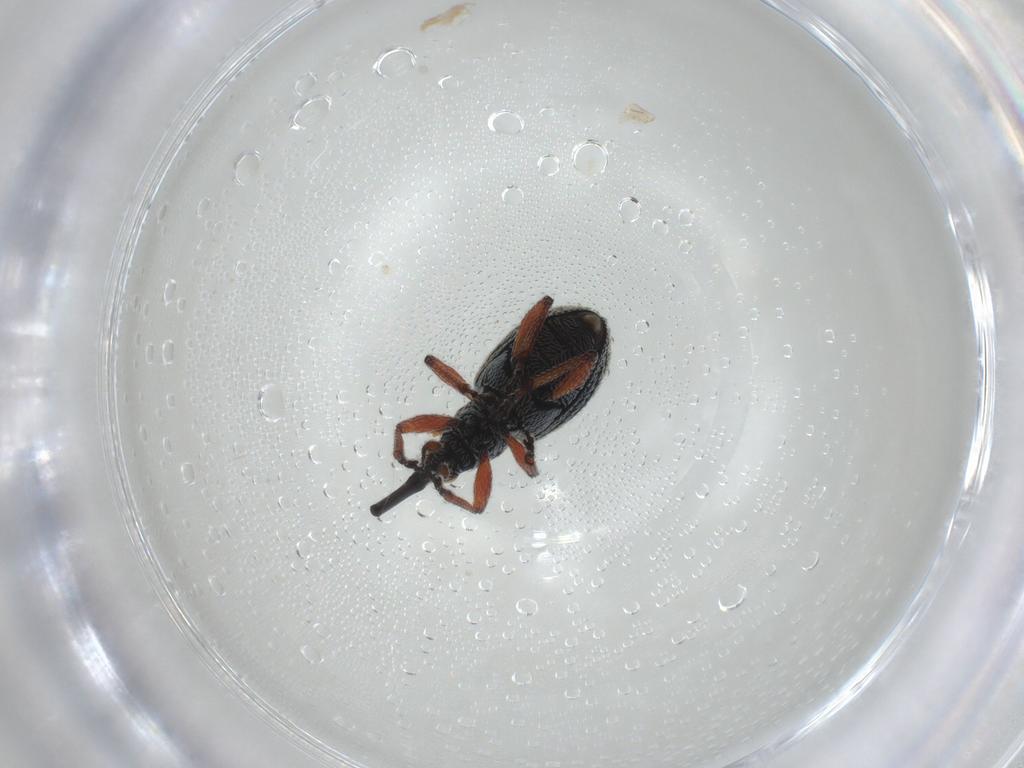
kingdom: Animalia
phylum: Arthropoda
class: Insecta
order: Coleoptera
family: Brentidae
